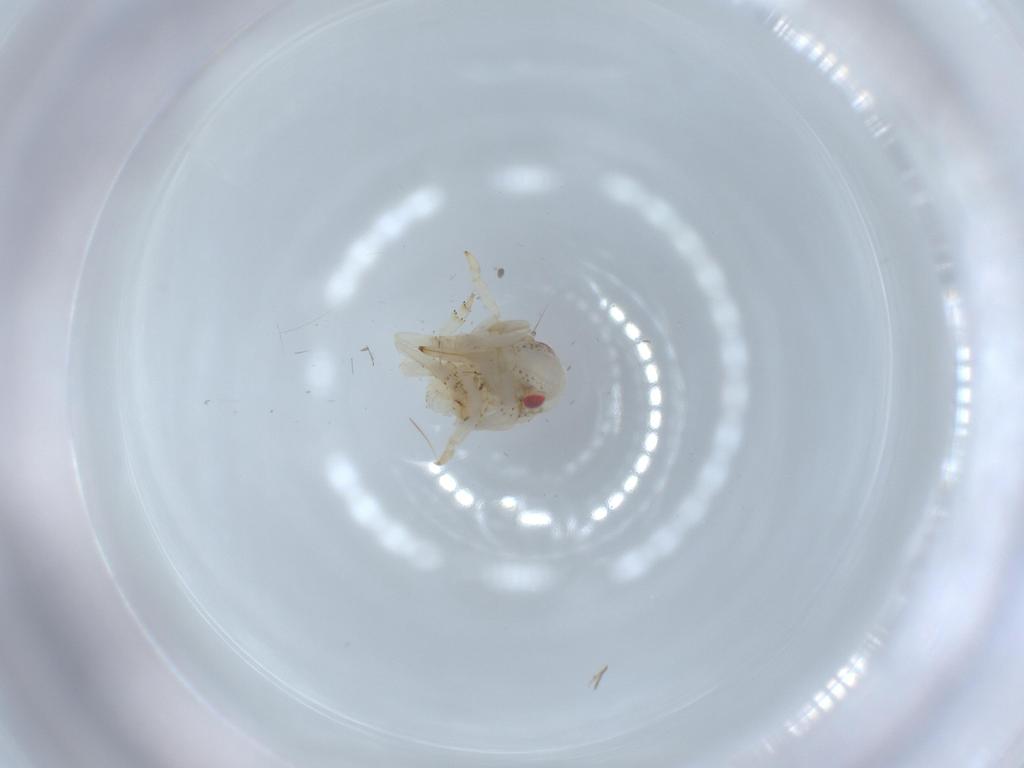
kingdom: Animalia
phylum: Arthropoda
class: Insecta
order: Hemiptera
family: Acanaloniidae
